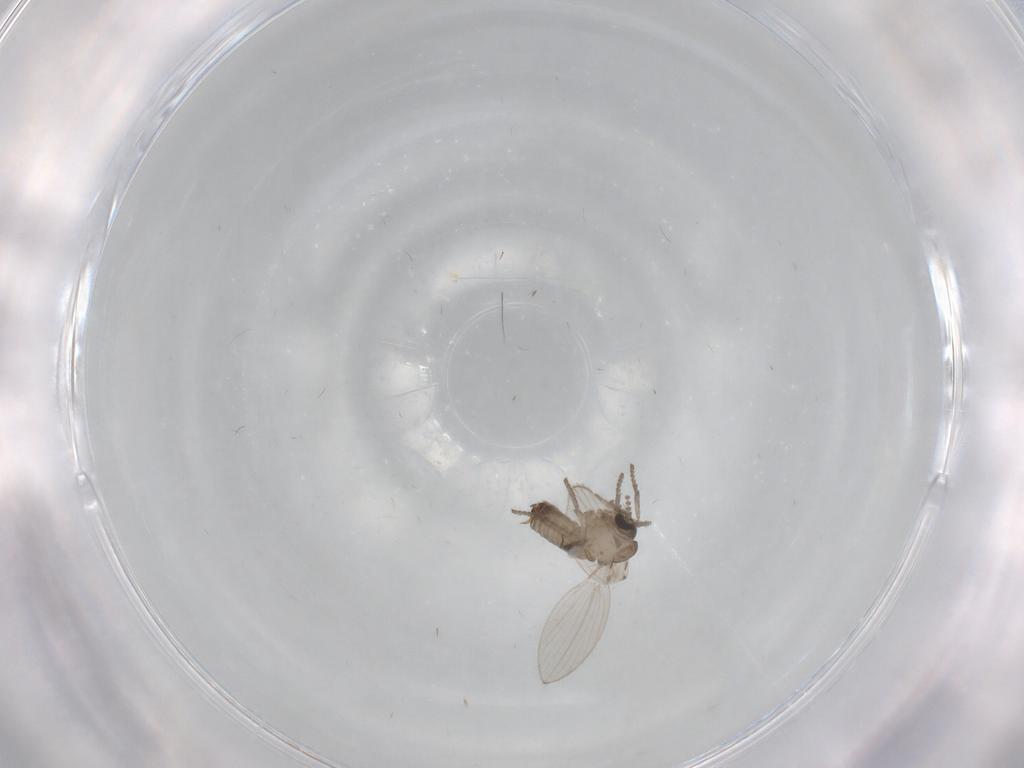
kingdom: Animalia
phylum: Arthropoda
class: Insecta
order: Diptera
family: Psychodidae
